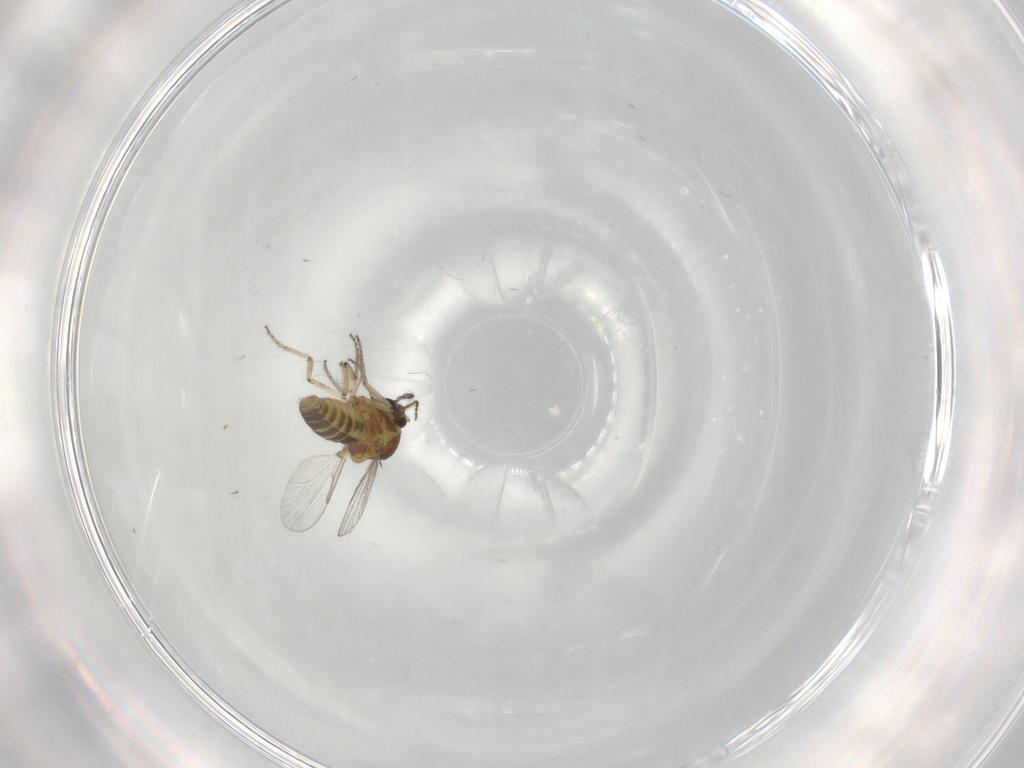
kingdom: Animalia
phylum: Arthropoda
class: Insecta
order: Diptera
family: Ceratopogonidae
